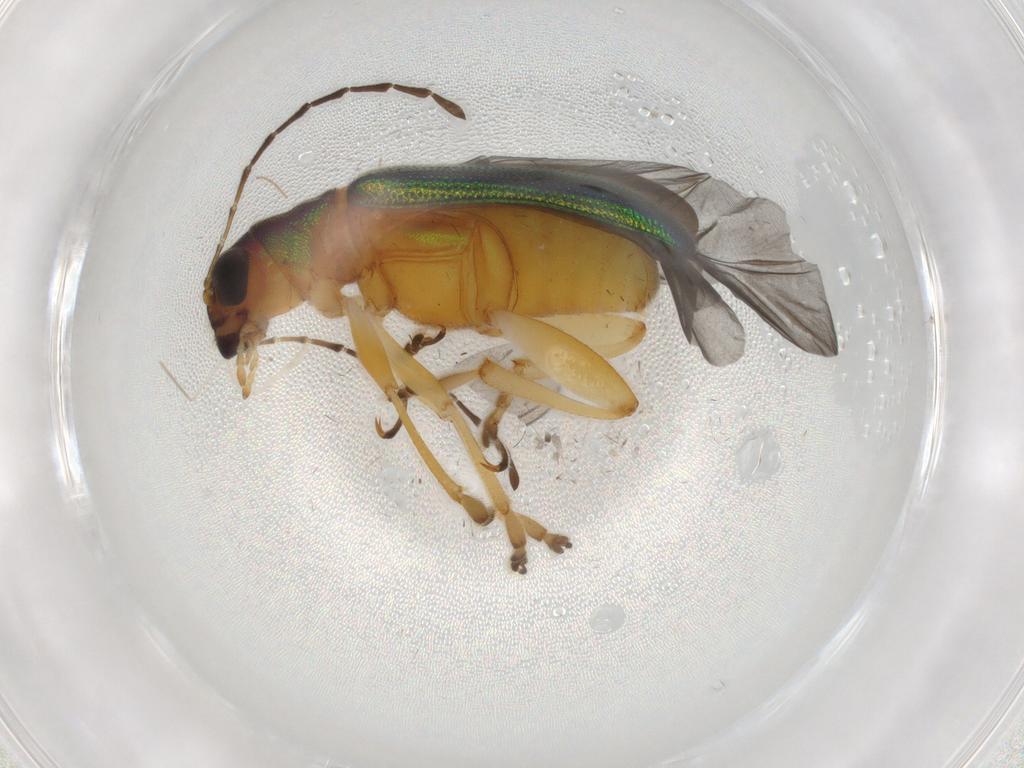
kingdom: Animalia
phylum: Arthropoda
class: Insecta
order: Coleoptera
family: Chrysomelidae
